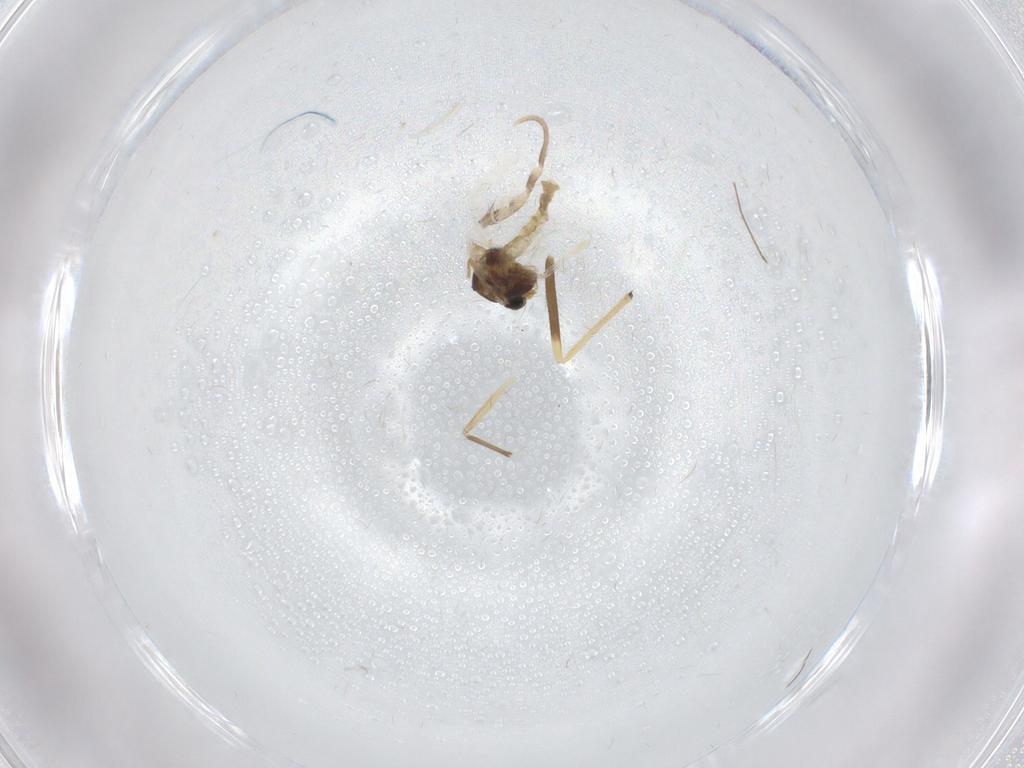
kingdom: Animalia
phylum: Arthropoda
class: Insecta
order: Diptera
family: Chironomidae
